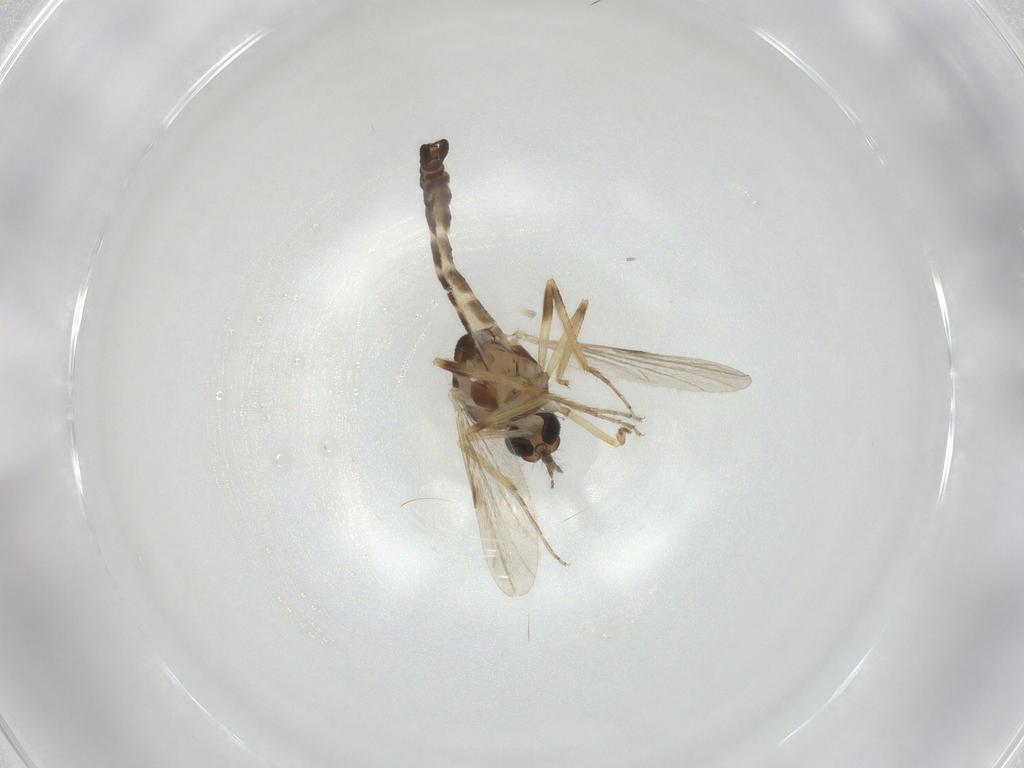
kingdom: Animalia
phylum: Arthropoda
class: Insecta
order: Diptera
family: Ceratopogonidae
